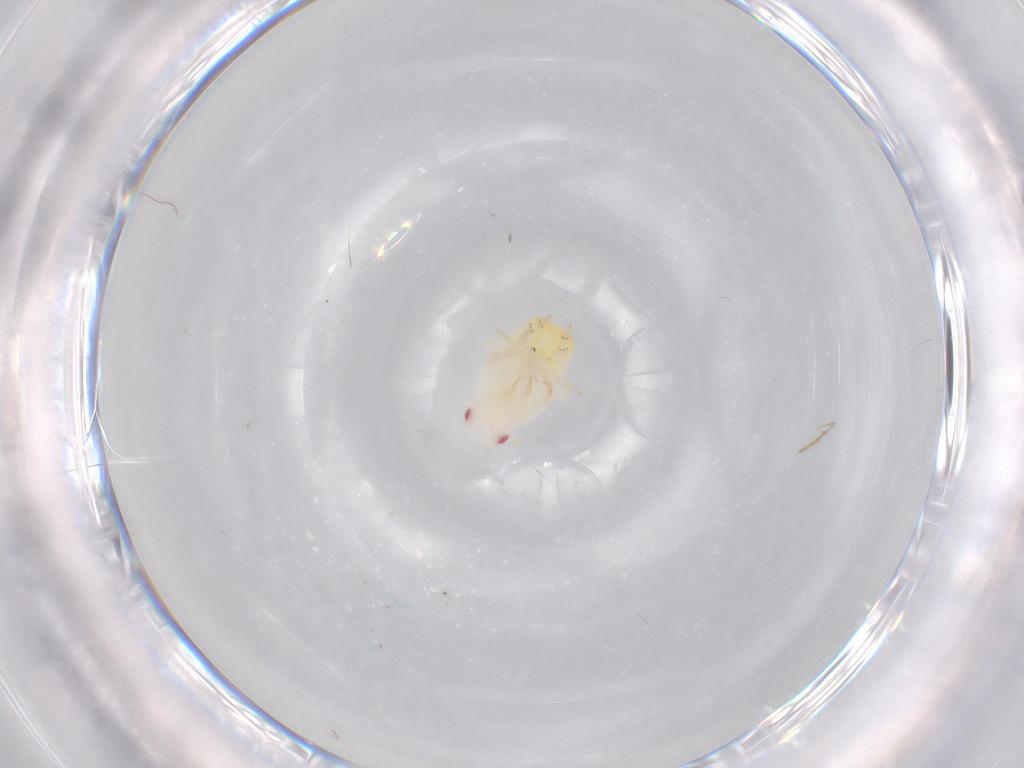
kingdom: Animalia
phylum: Arthropoda
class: Insecta
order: Hemiptera
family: Flatidae
